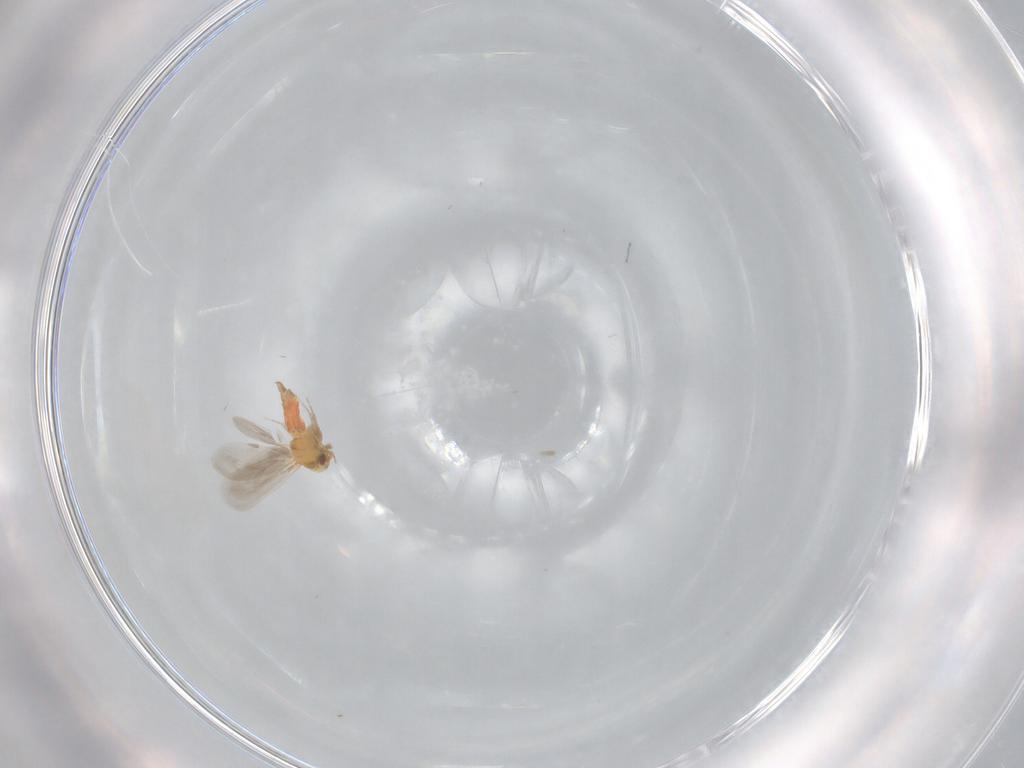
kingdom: Animalia
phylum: Arthropoda
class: Insecta
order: Hemiptera
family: Aleyrodidae
